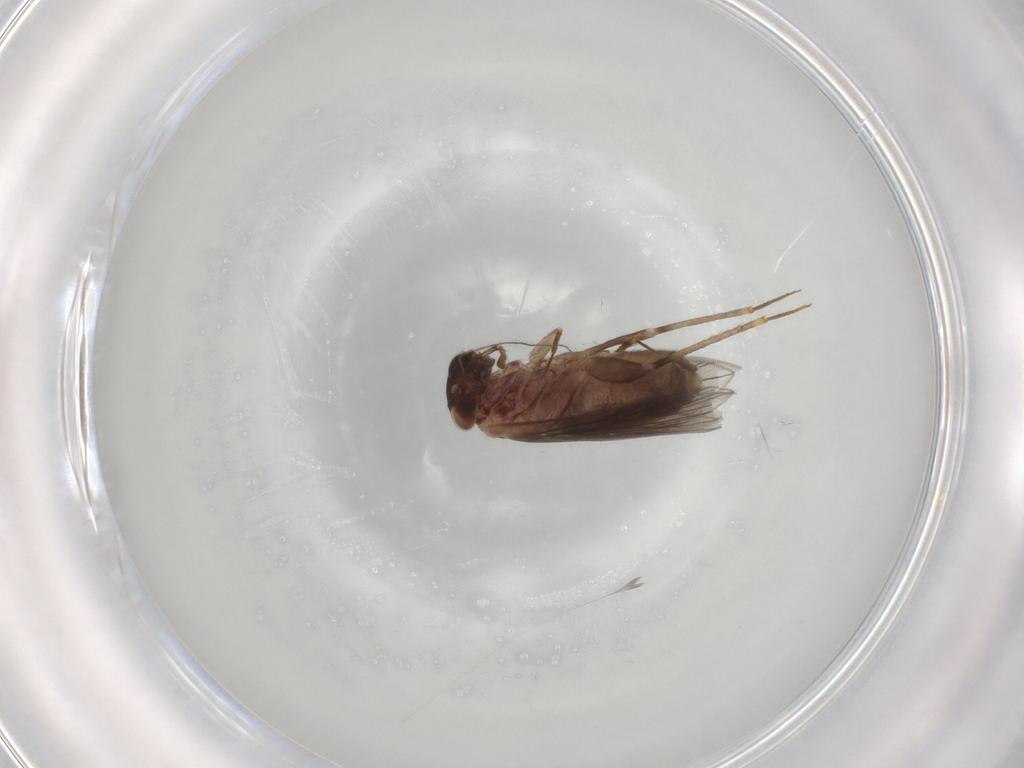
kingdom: Animalia
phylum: Arthropoda
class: Insecta
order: Psocodea
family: Lepidopsocidae
